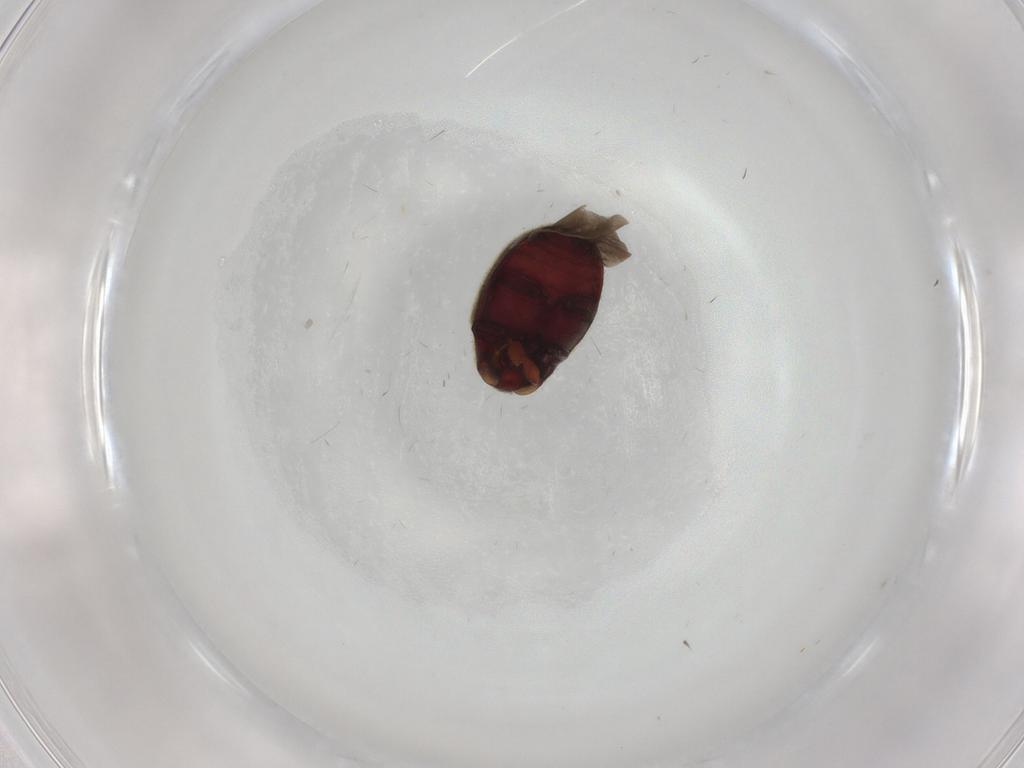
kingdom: Animalia
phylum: Arthropoda
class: Insecta
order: Coleoptera
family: Ptinidae
